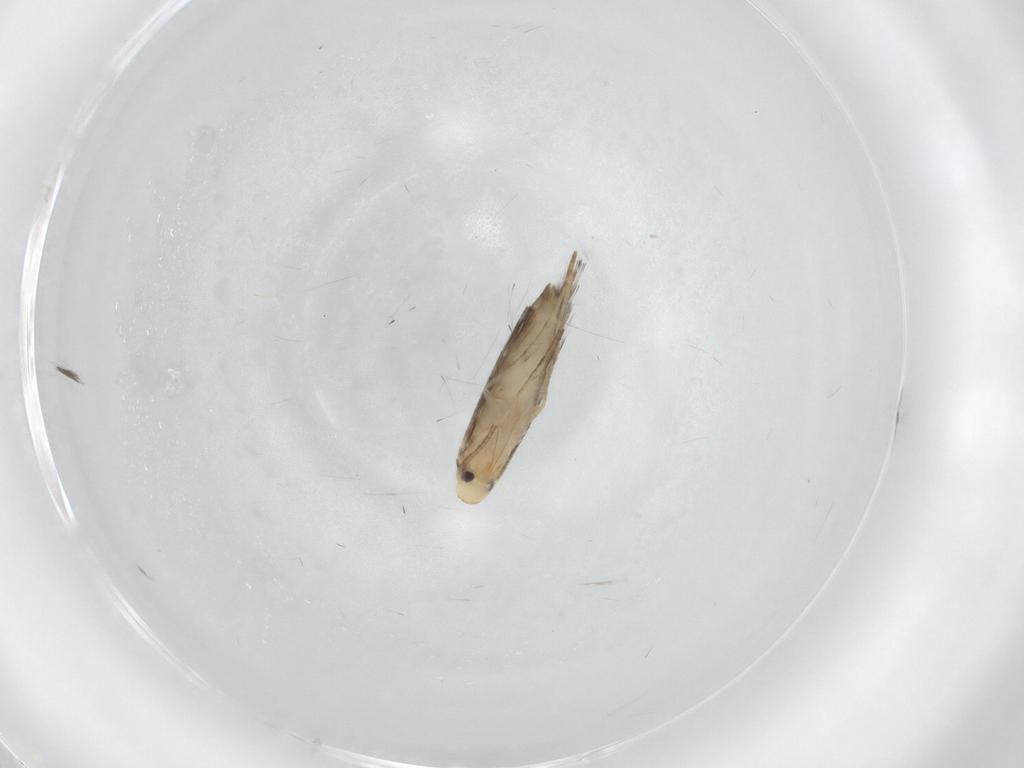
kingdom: Animalia
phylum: Arthropoda
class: Insecta
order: Lepidoptera
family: Gracillariidae
